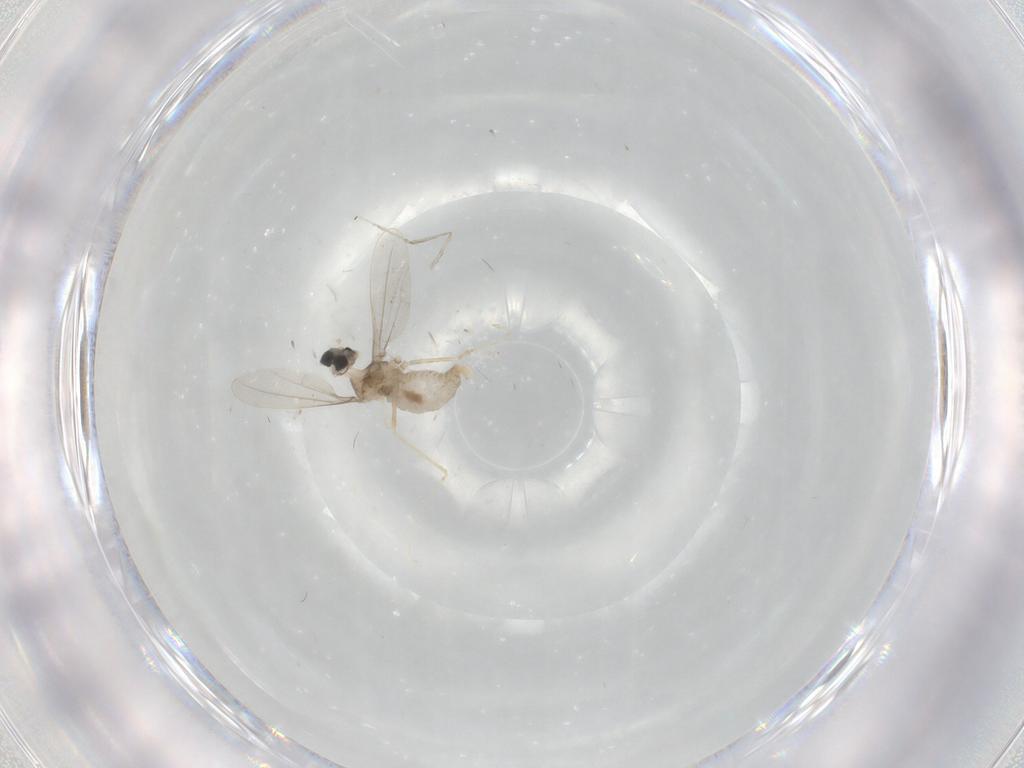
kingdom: Animalia
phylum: Arthropoda
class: Insecta
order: Diptera
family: Cecidomyiidae
